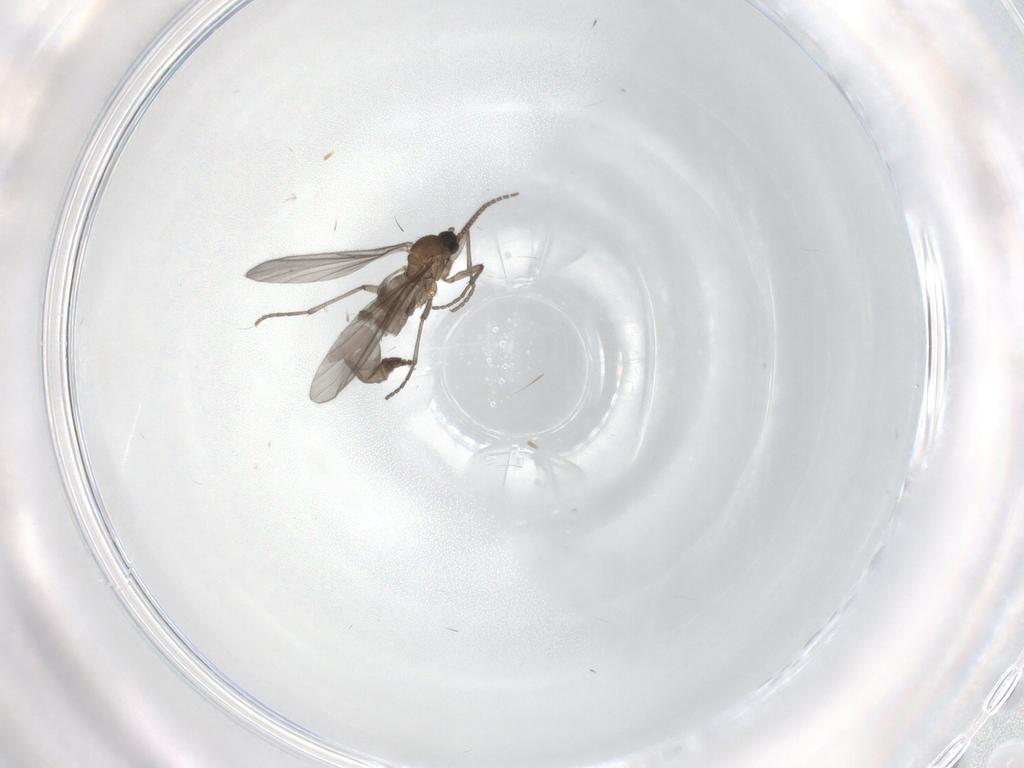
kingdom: Animalia
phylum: Arthropoda
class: Insecta
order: Diptera
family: Sciaridae
